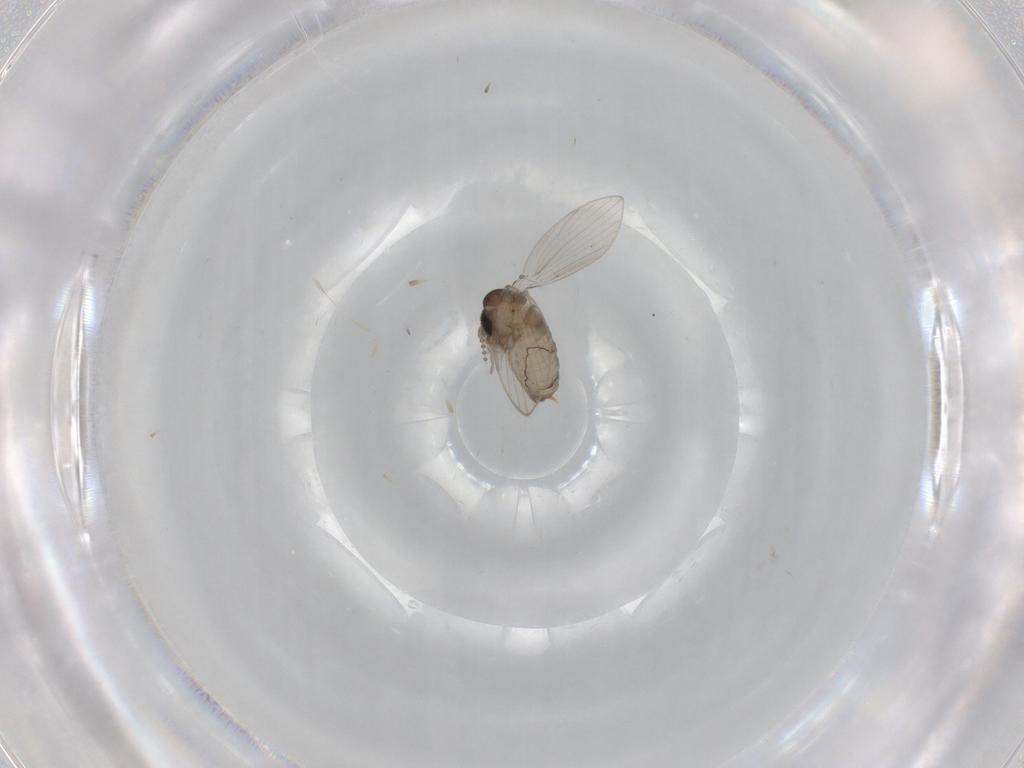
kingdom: Animalia
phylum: Arthropoda
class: Insecta
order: Diptera
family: Psychodidae
